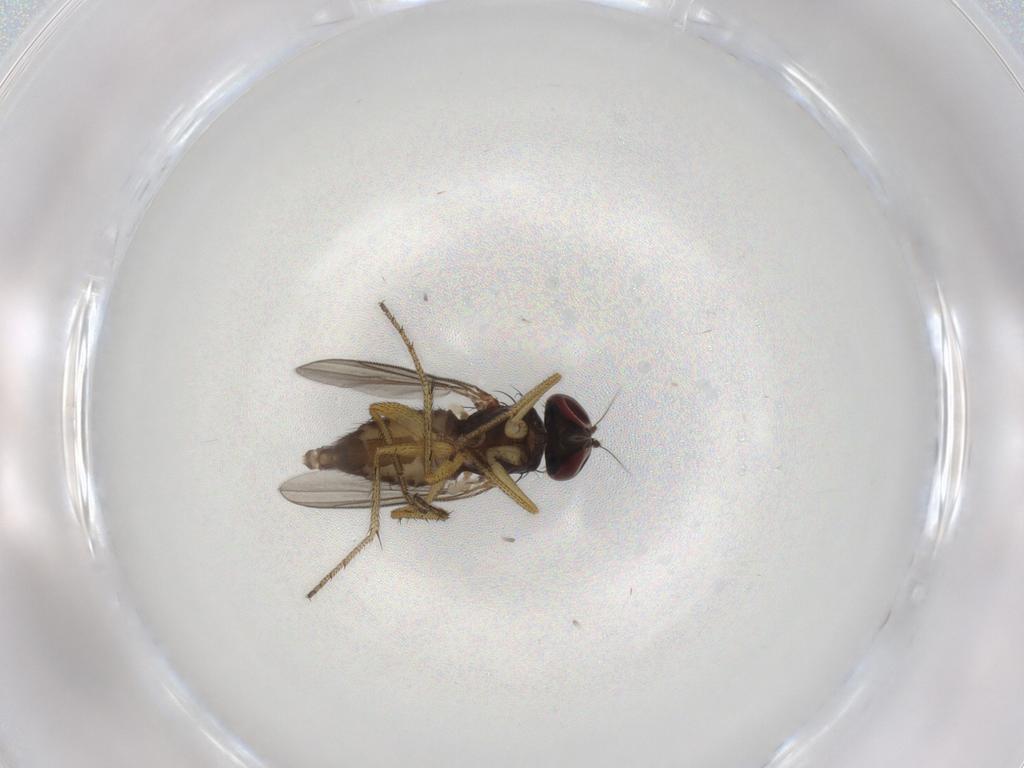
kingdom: Animalia
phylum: Arthropoda
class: Insecta
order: Diptera
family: Dolichopodidae
